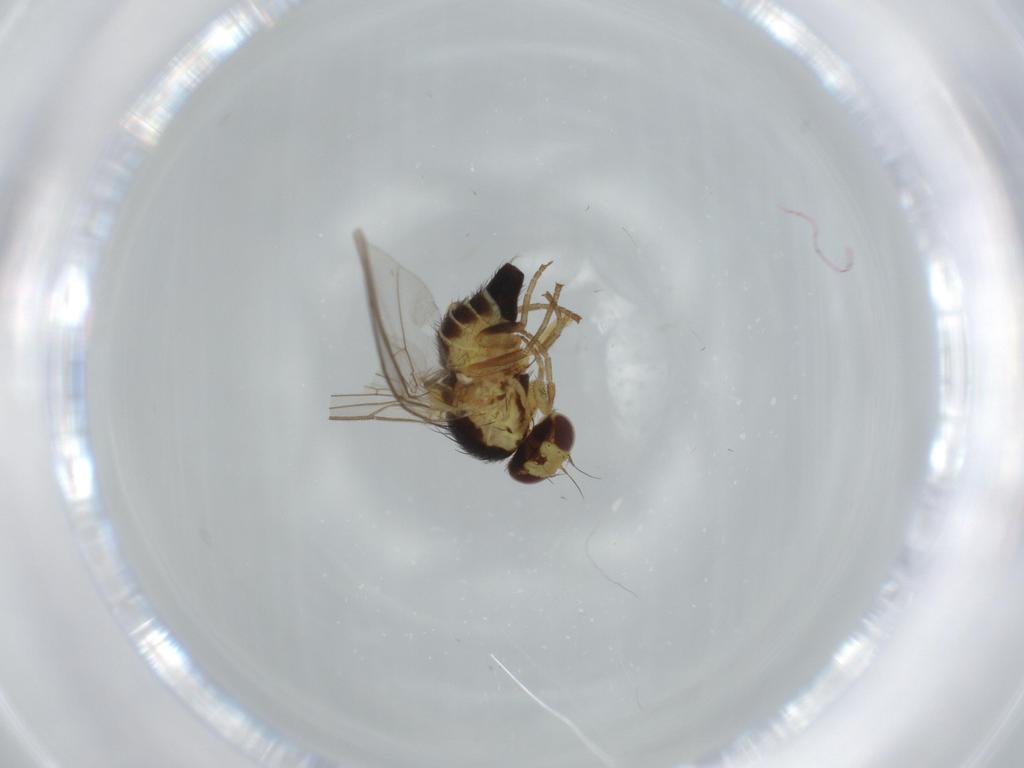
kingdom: Animalia
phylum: Arthropoda
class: Insecta
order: Diptera
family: Agromyzidae
